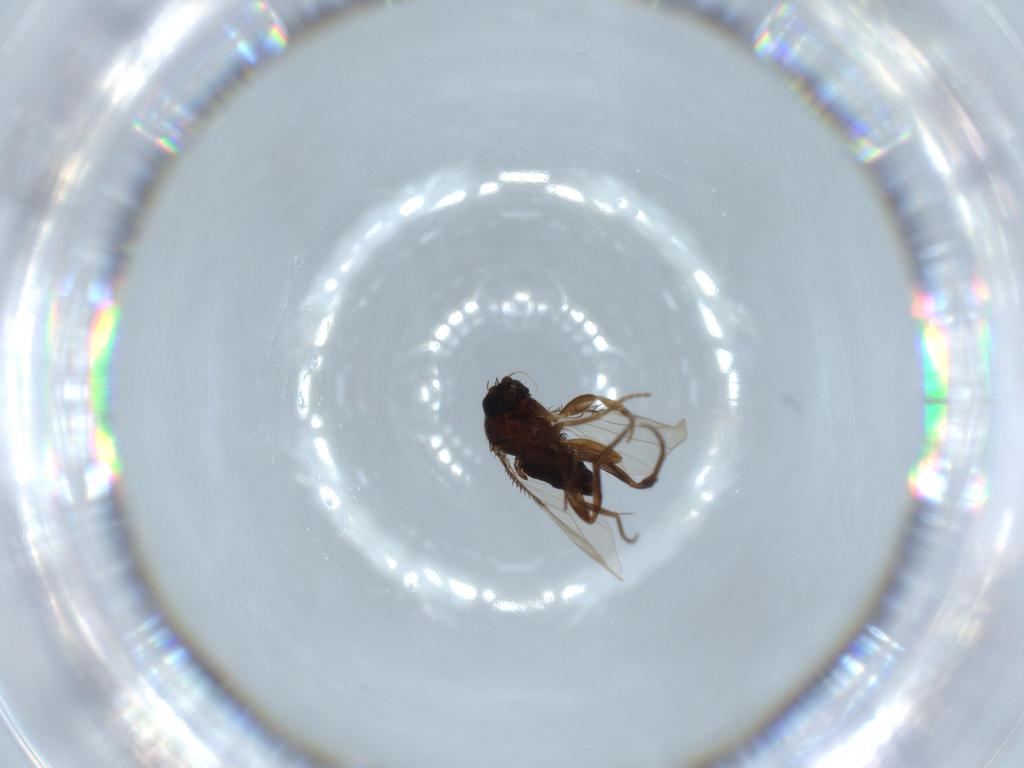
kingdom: Animalia
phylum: Arthropoda
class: Insecta
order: Diptera
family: Phoridae
